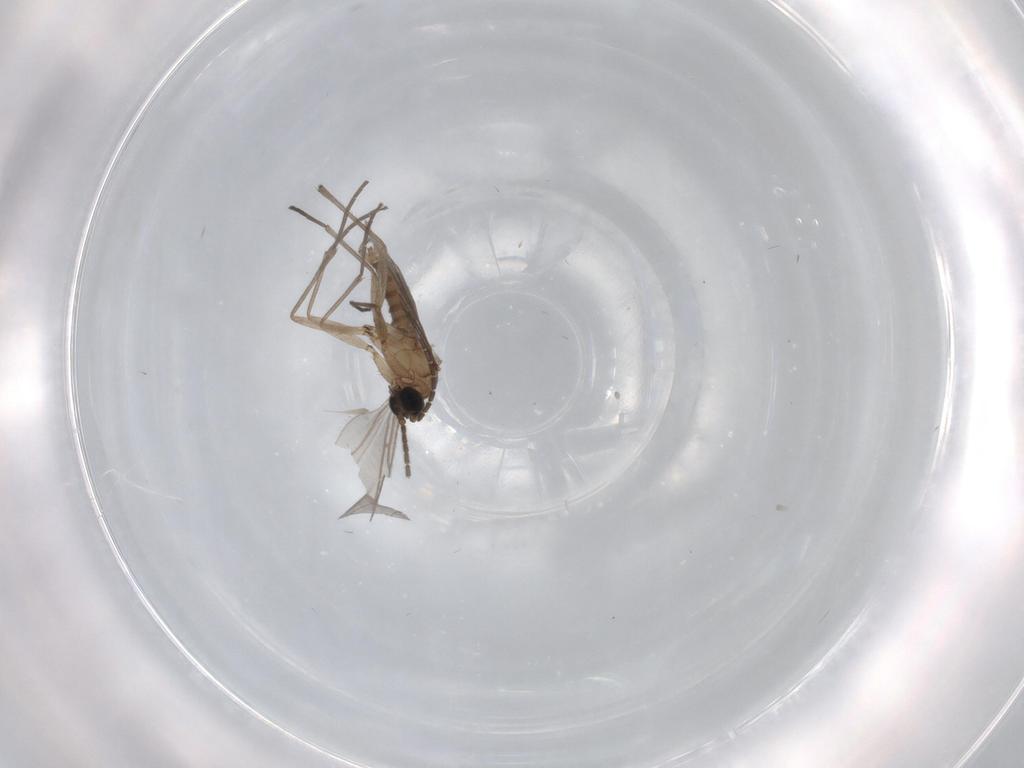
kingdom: Animalia
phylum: Arthropoda
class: Insecta
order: Diptera
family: Sciaridae
